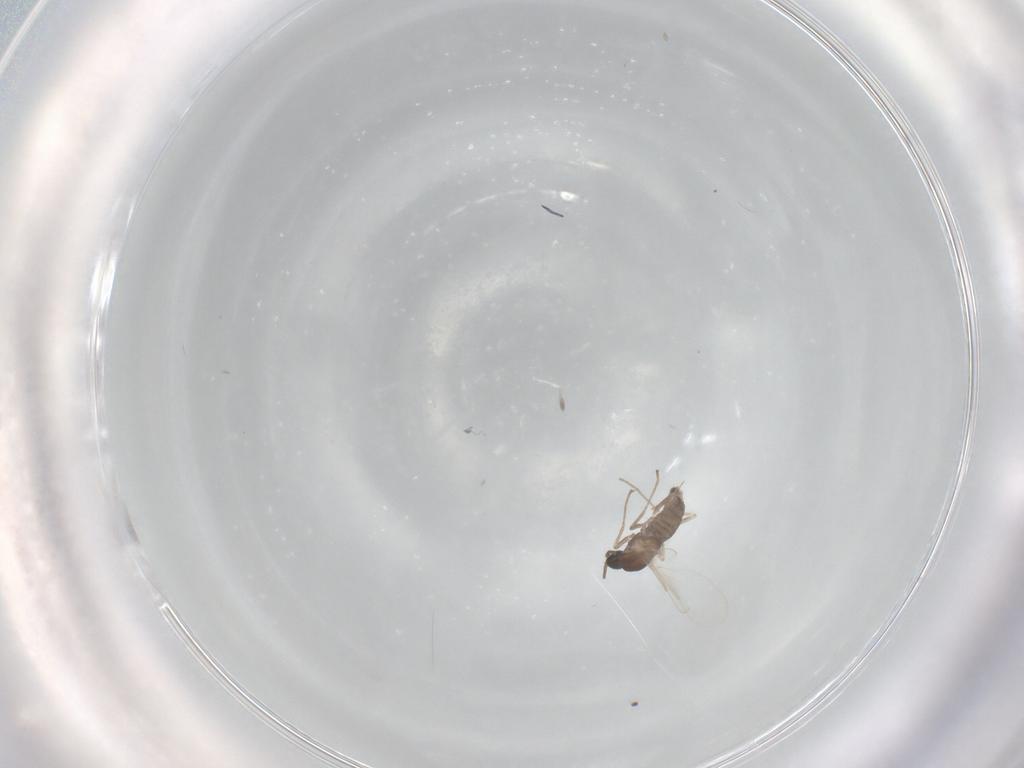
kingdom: Animalia
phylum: Arthropoda
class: Insecta
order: Diptera
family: Cecidomyiidae
